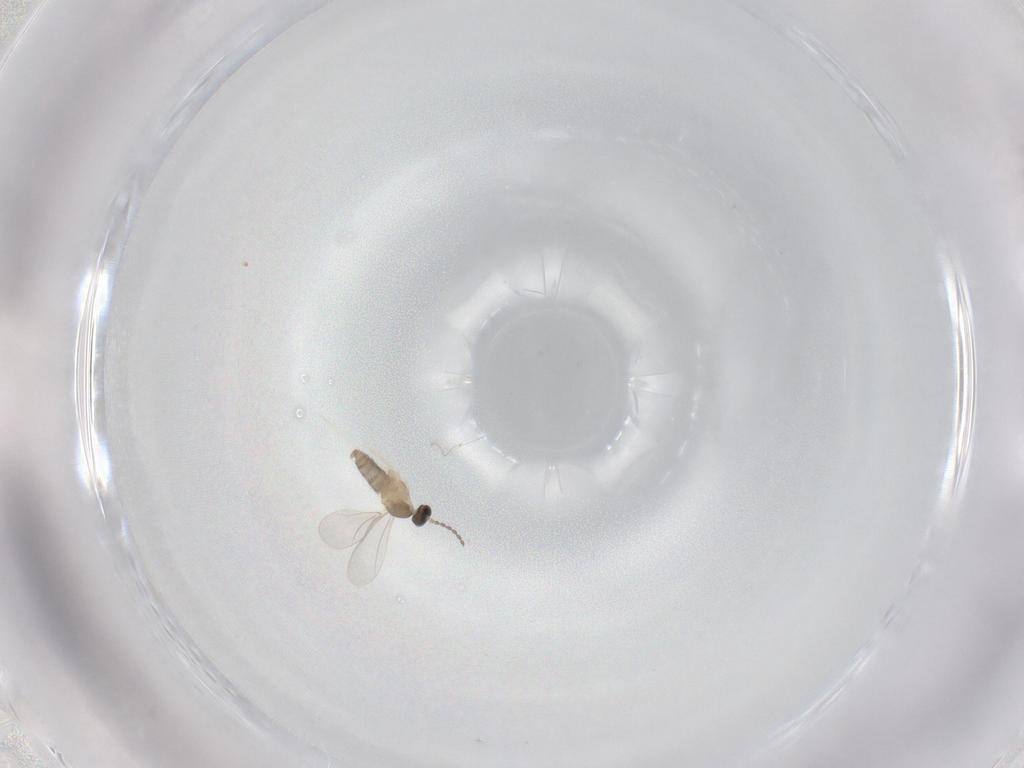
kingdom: Animalia
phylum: Arthropoda
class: Insecta
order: Diptera
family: Cecidomyiidae
